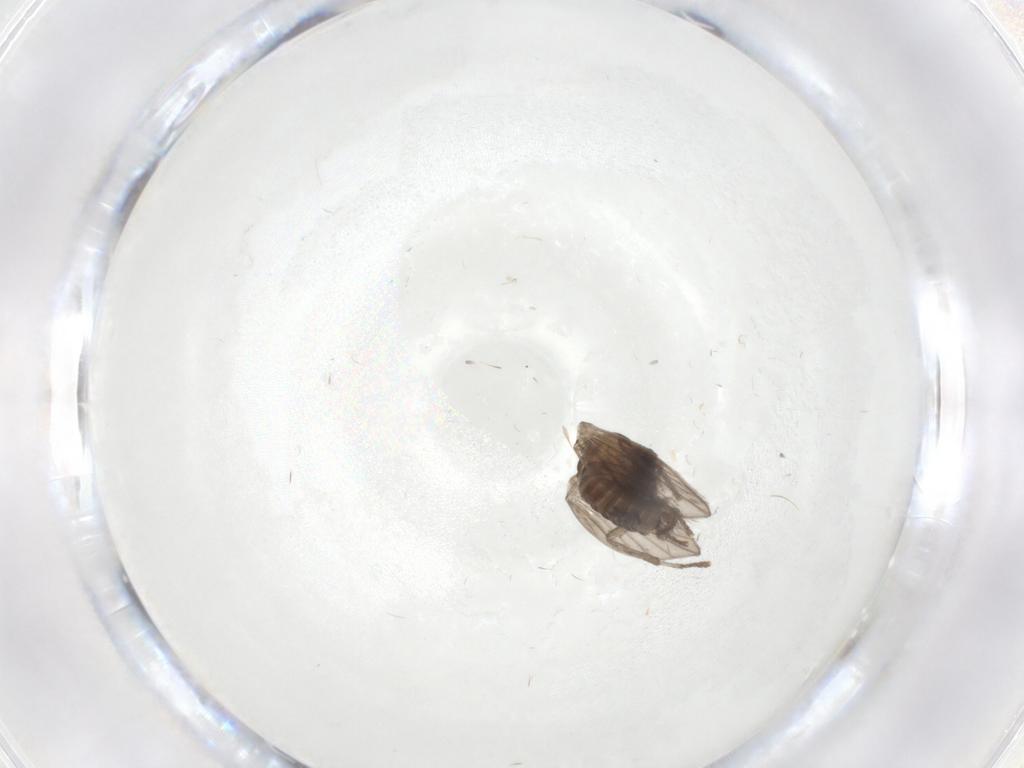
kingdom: Animalia
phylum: Arthropoda
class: Insecta
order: Diptera
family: Psychodidae
